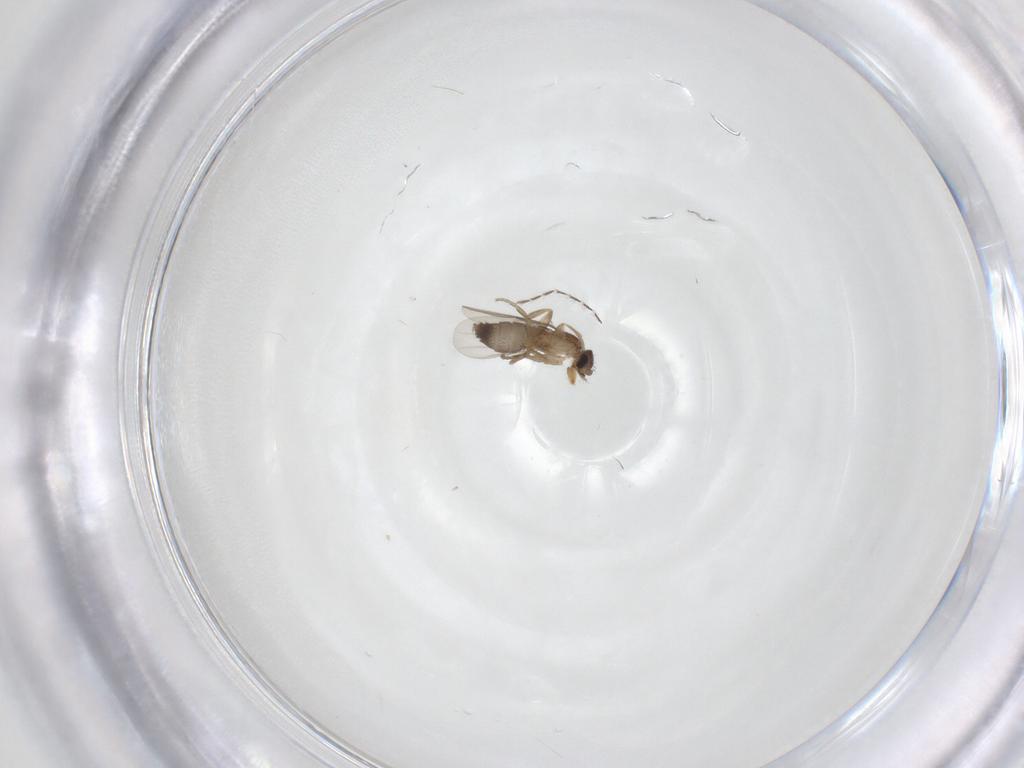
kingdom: Animalia
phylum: Arthropoda
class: Insecta
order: Diptera
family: Phoridae
